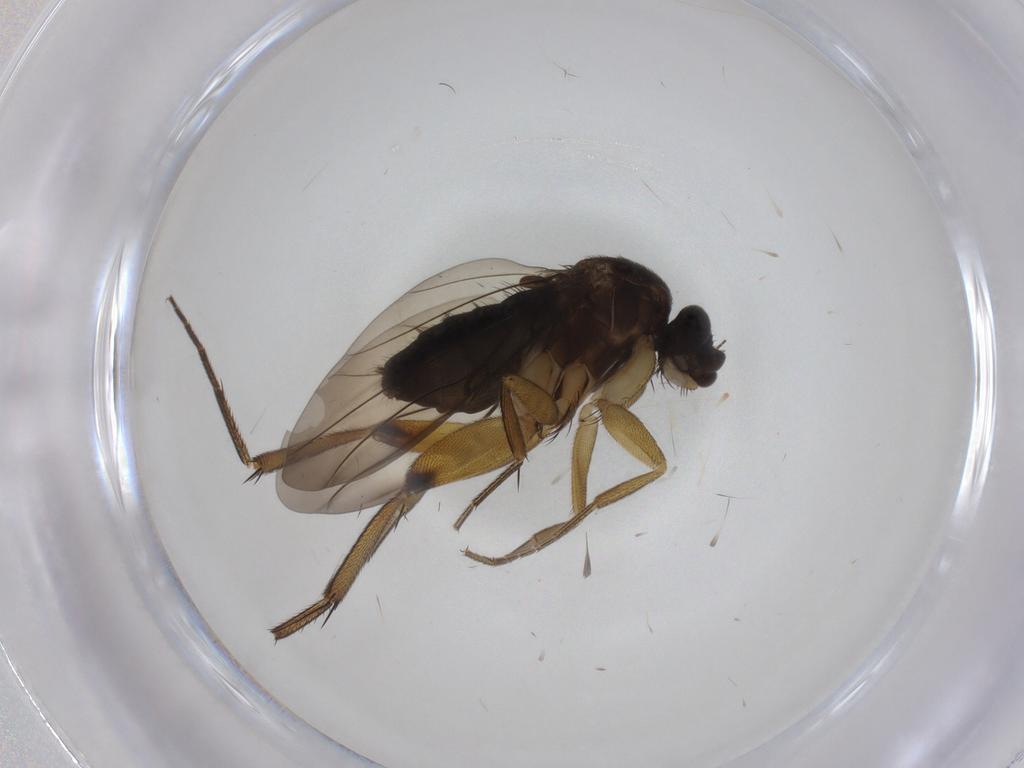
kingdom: Animalia
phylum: Arthropoda
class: Insecta
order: Diptera
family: Phoridae
